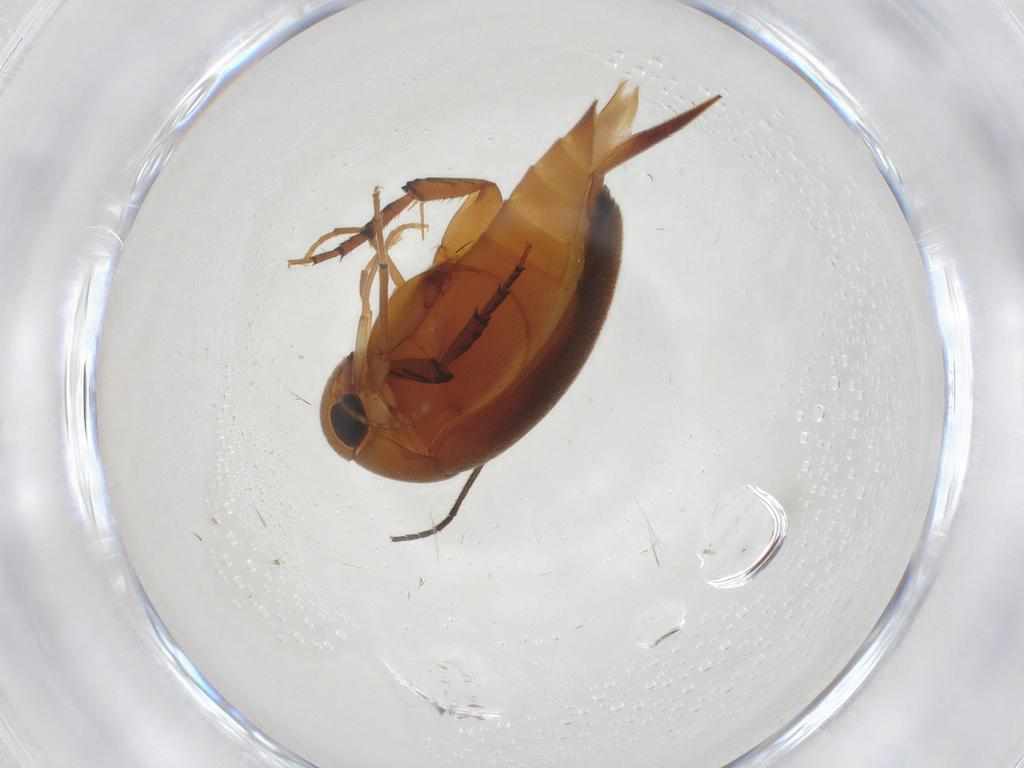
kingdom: Animalia
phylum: Arthropoda
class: Insecta
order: Coleoptera
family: Mordellidae
